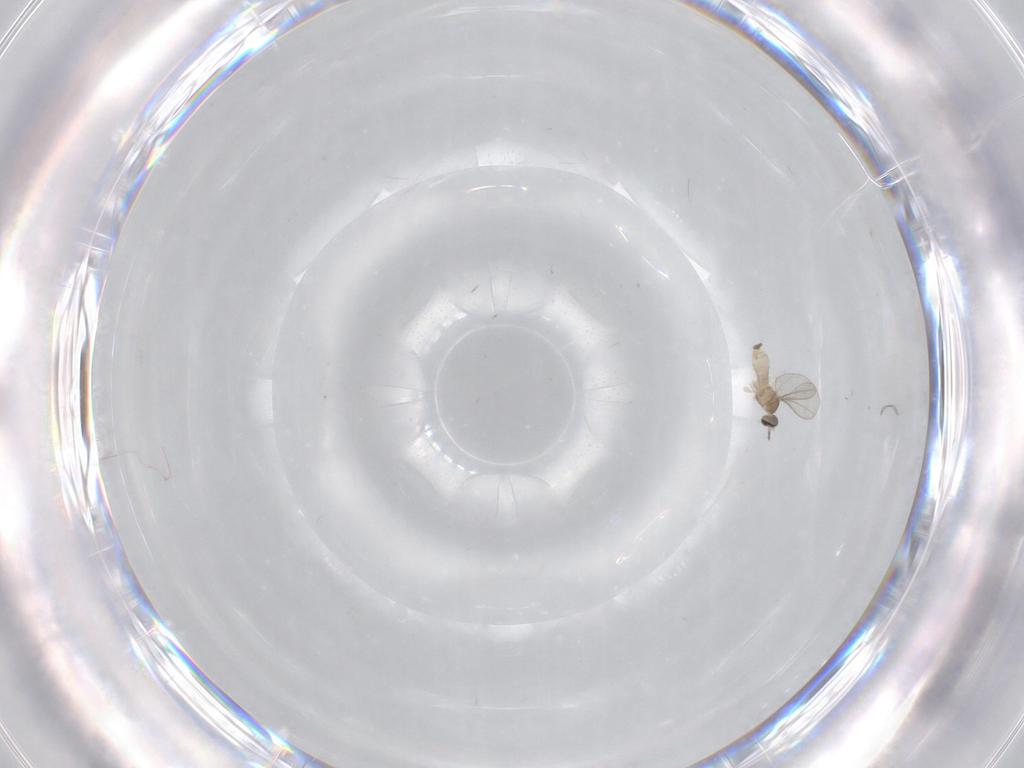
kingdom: Animalia
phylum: Arthropoda
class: Insecta
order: Diptera
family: Cecidomyiidae
